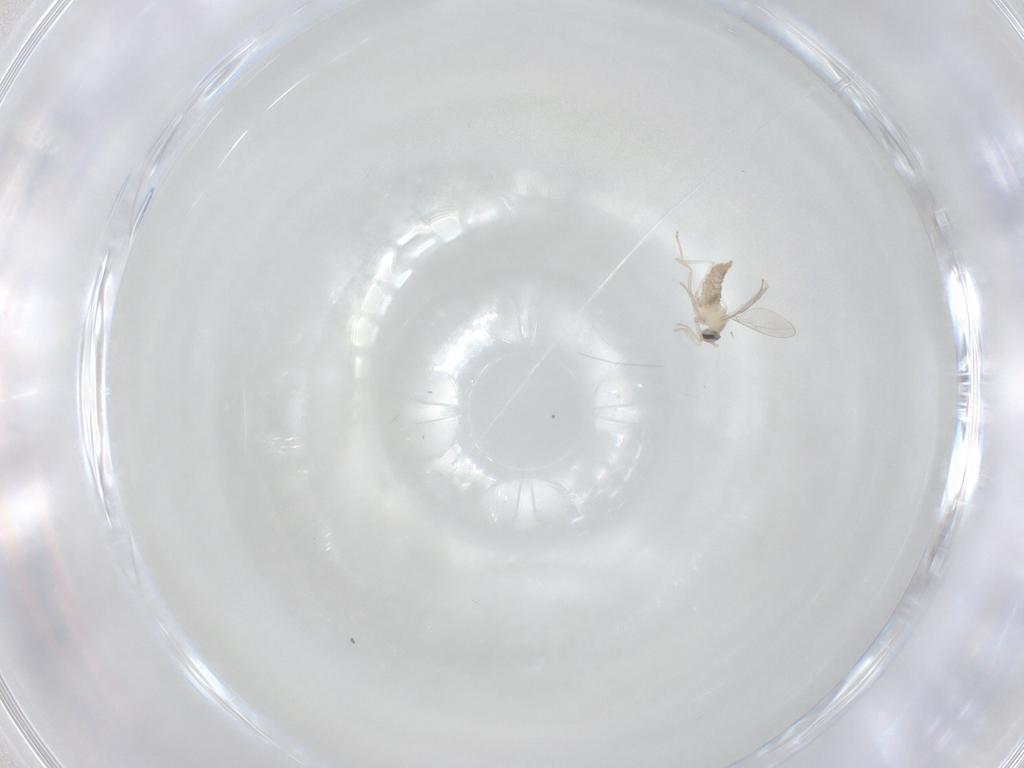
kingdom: Animalia
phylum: Arthropoda
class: Insecta
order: Diptera
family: Cecidomyiidae
